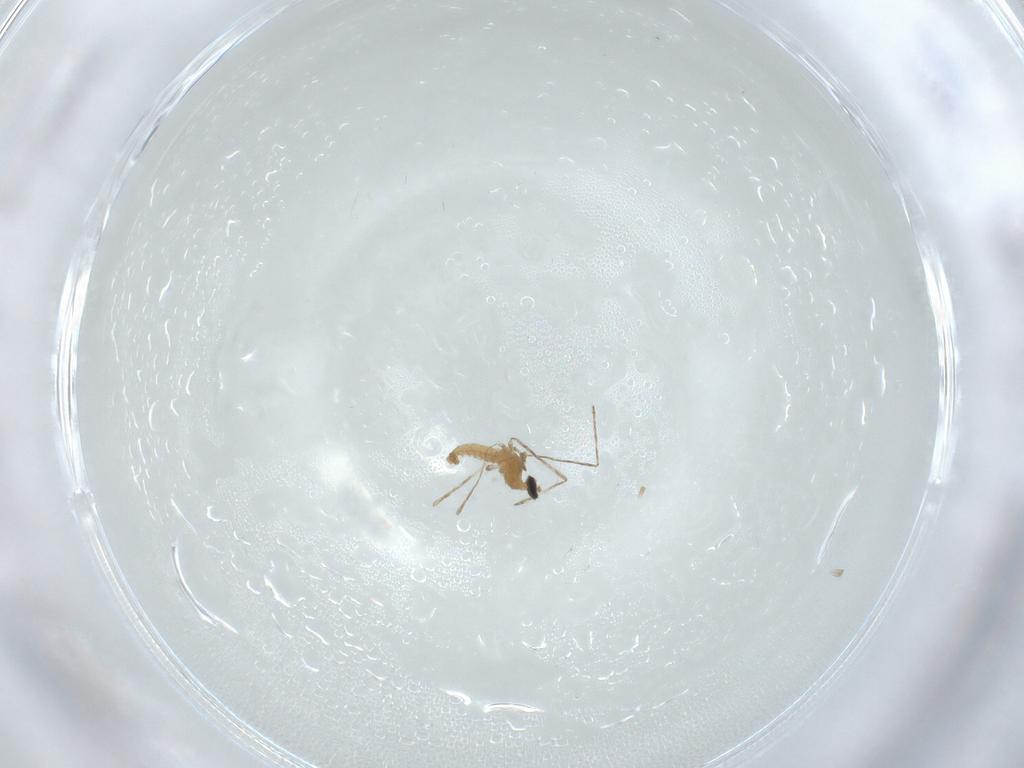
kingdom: Animalia
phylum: Arthropoda
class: Insecta
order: Diptera
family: Cecidomyiidae
